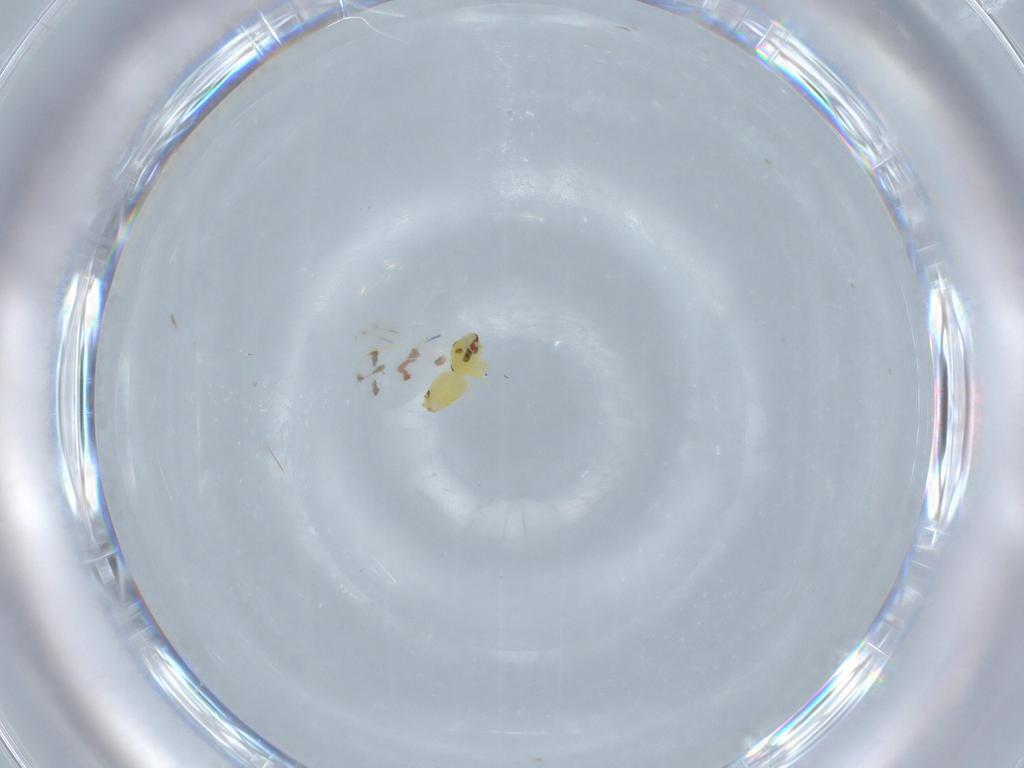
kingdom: Animalia
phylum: Arthropoda
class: Insecta
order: Hemiptera
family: Aleyrodidae
